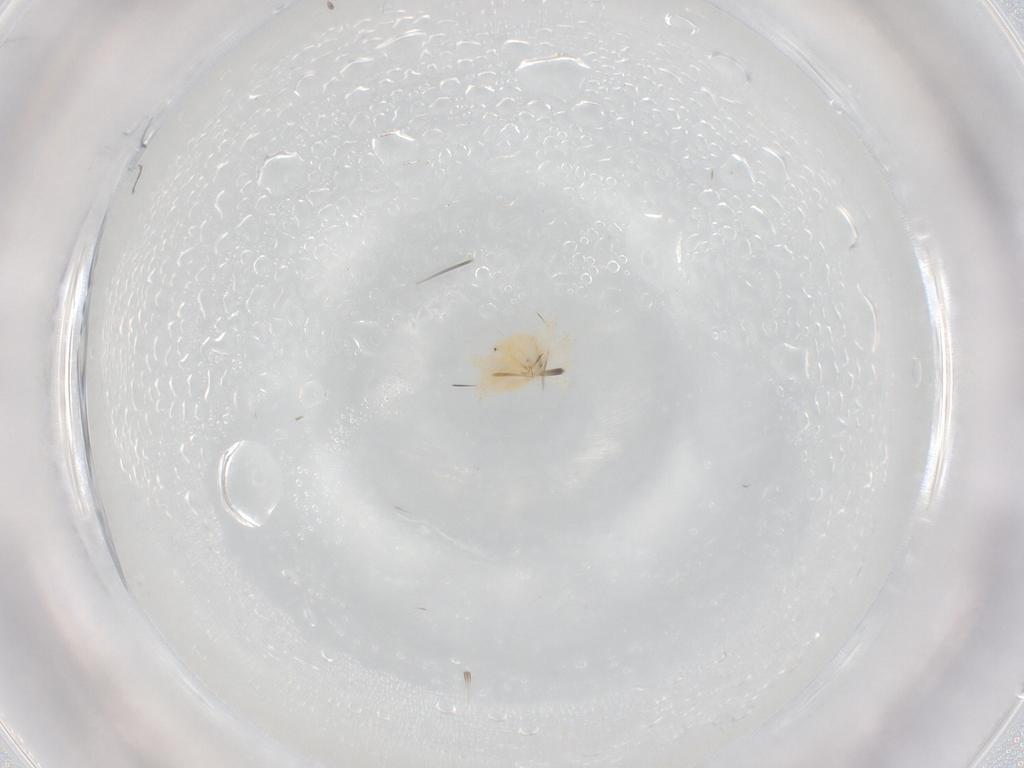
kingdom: Animalia
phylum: Arthropoda
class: Arachnida
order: Trombidiformes
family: Anystidae
